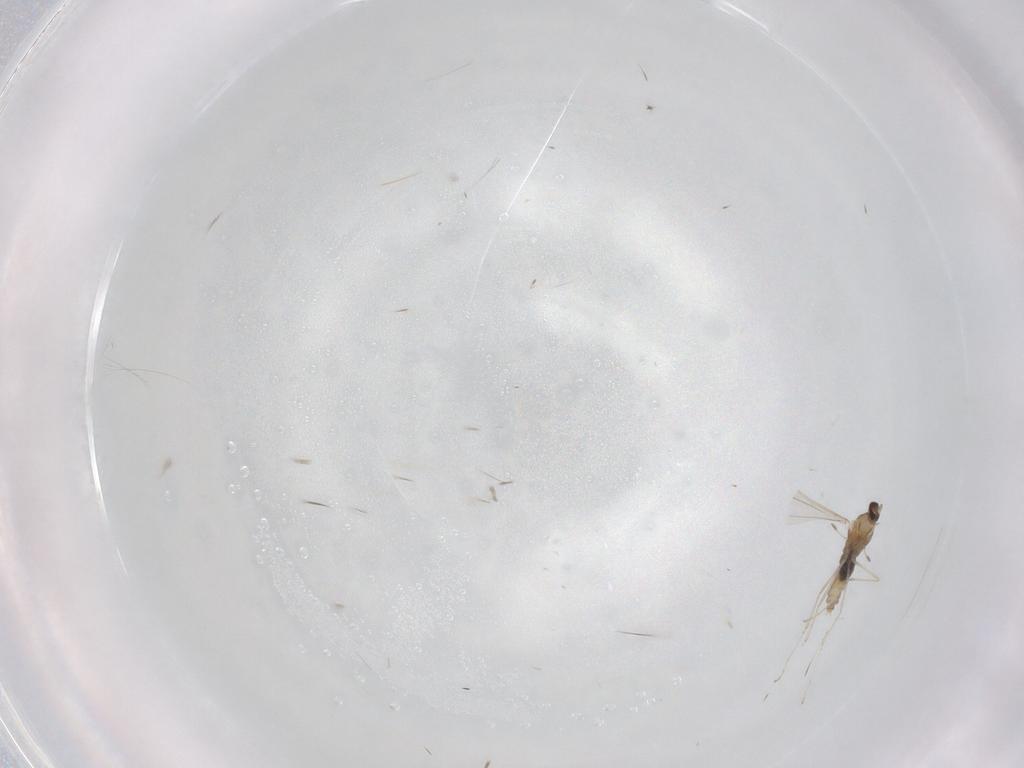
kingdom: Animalia
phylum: Arthropoda
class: Insecta
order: Diptera
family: Cecidomyiidae
